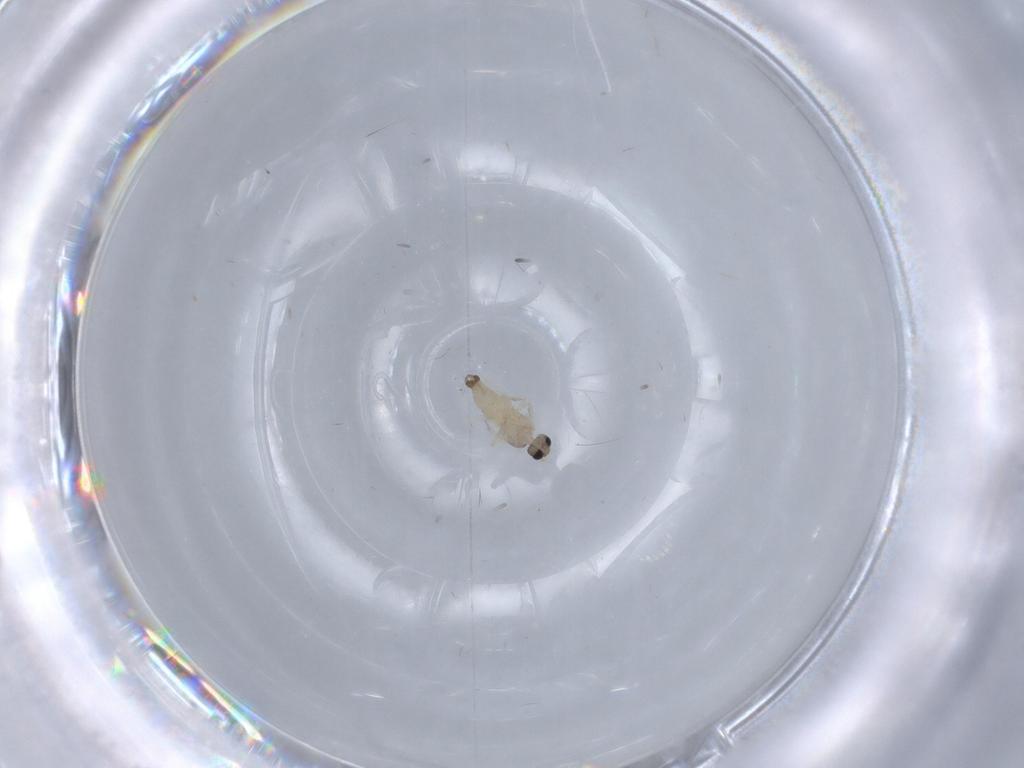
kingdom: Animalia
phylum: Arthropoda
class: Insecta
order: Diptera
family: Cecidomyiidae
